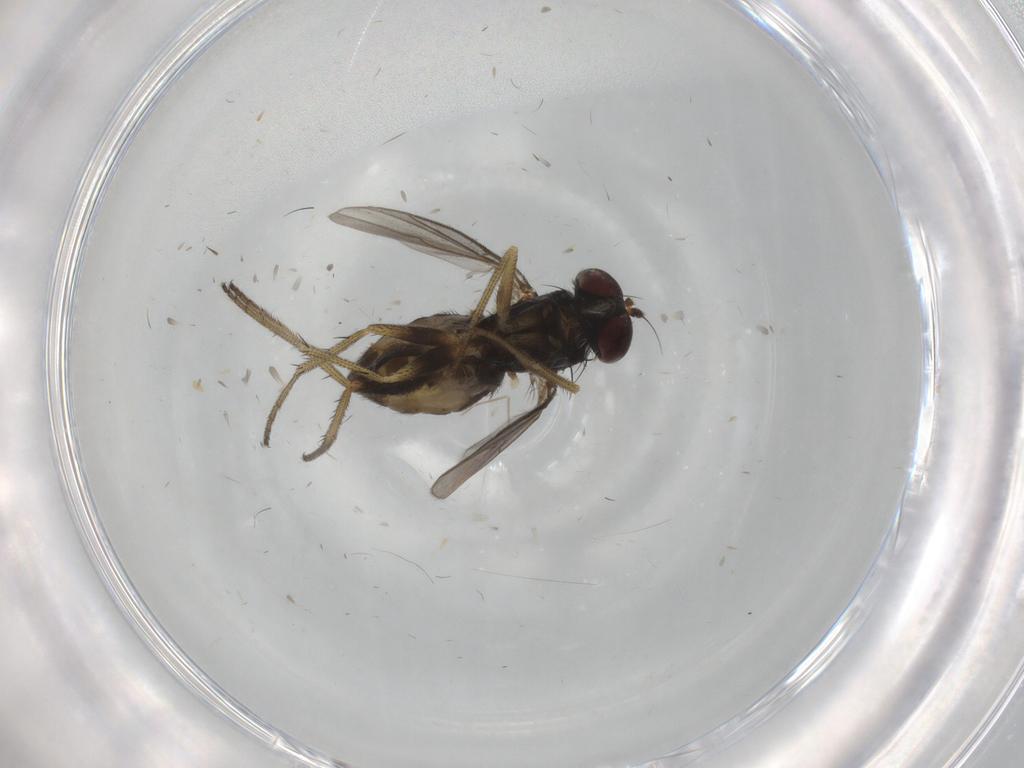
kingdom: Animalia
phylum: Arthropoda
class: Insecta
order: Diptera
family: Dolichopodidae
